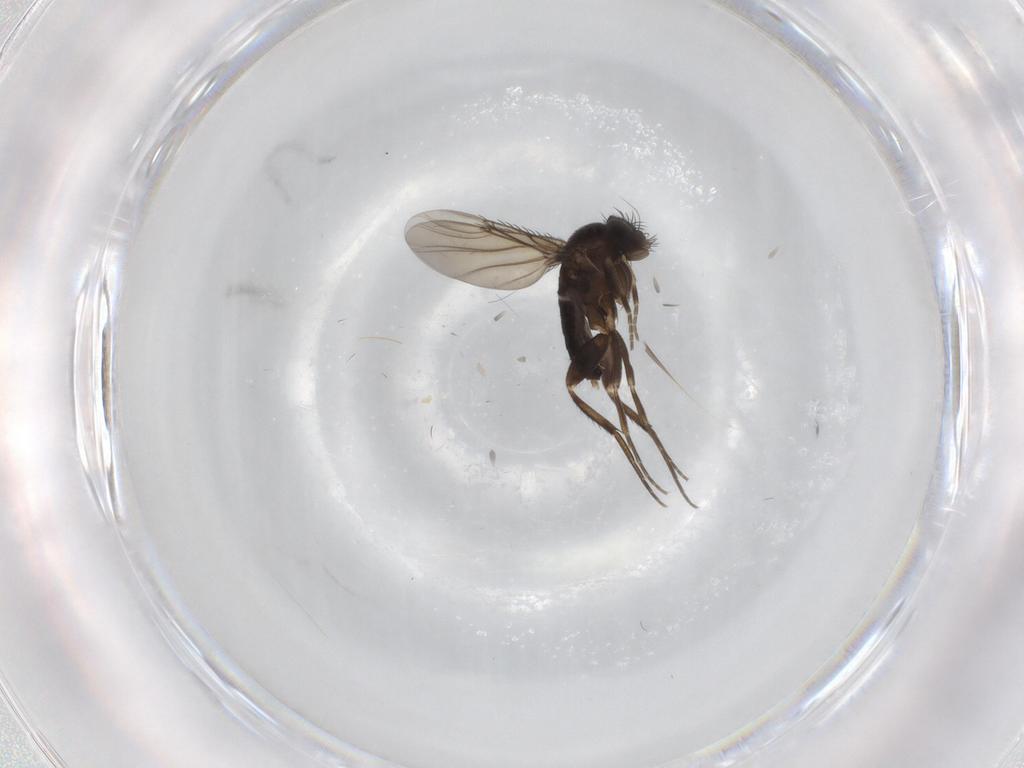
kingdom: Animalia
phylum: Arthropoda
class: Insecta
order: Diptera
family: Phoridae
